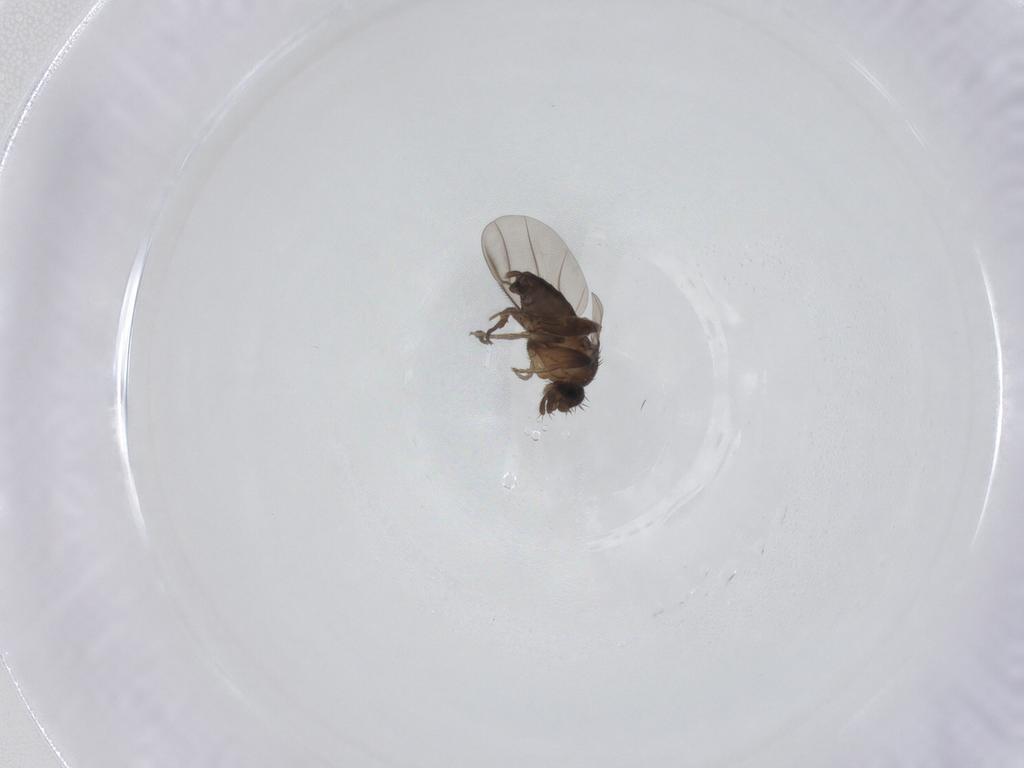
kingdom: Animalia
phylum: Arthropoda
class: Insecta
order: Diptera
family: Phoridae
